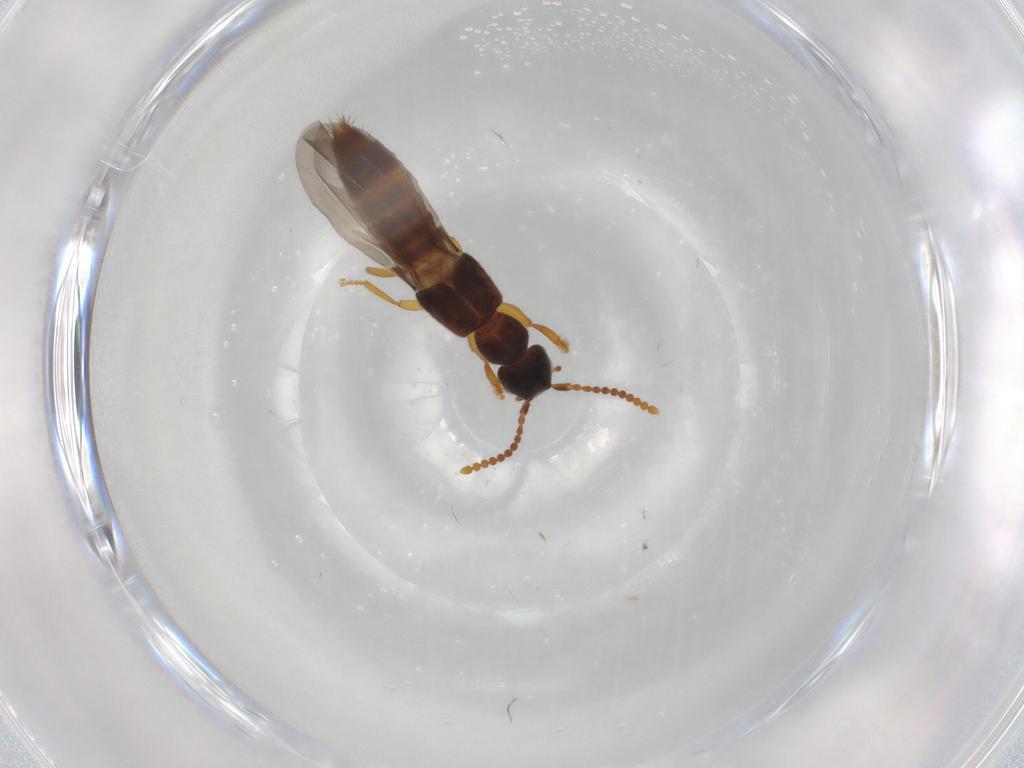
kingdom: Animalia
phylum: Arthropoda
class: Insecta
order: Coleoptera
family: Staphylinidae
